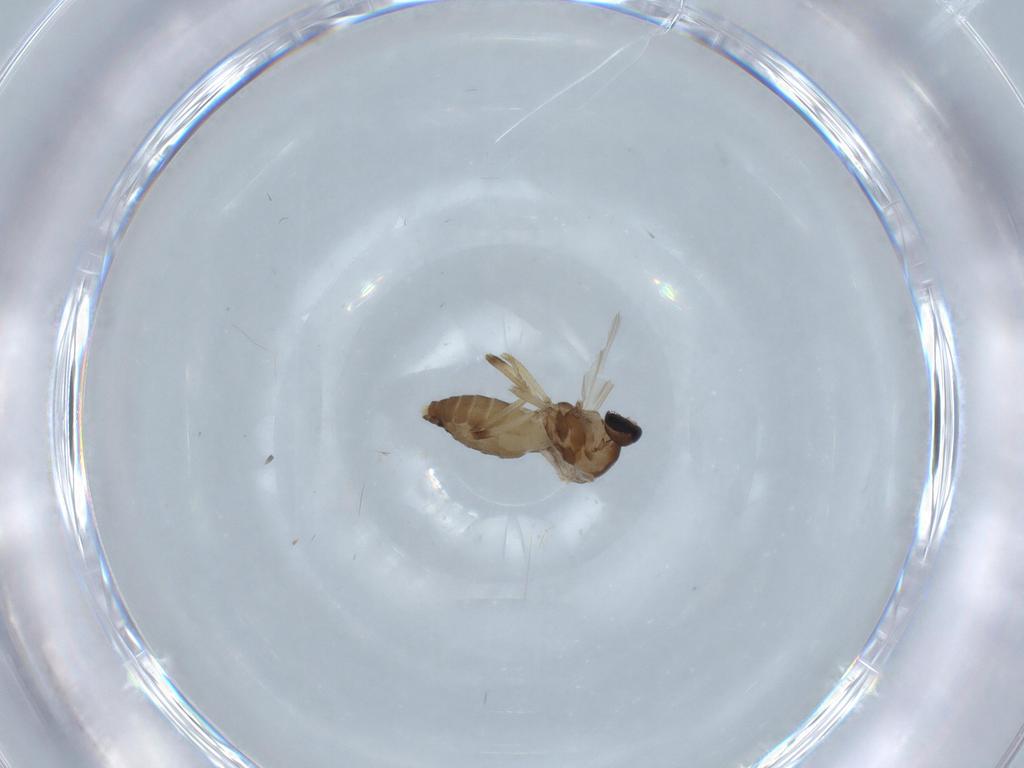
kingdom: Animalia
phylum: Arthropoda
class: Insecta
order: Diptera
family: Ceratopogonidae
